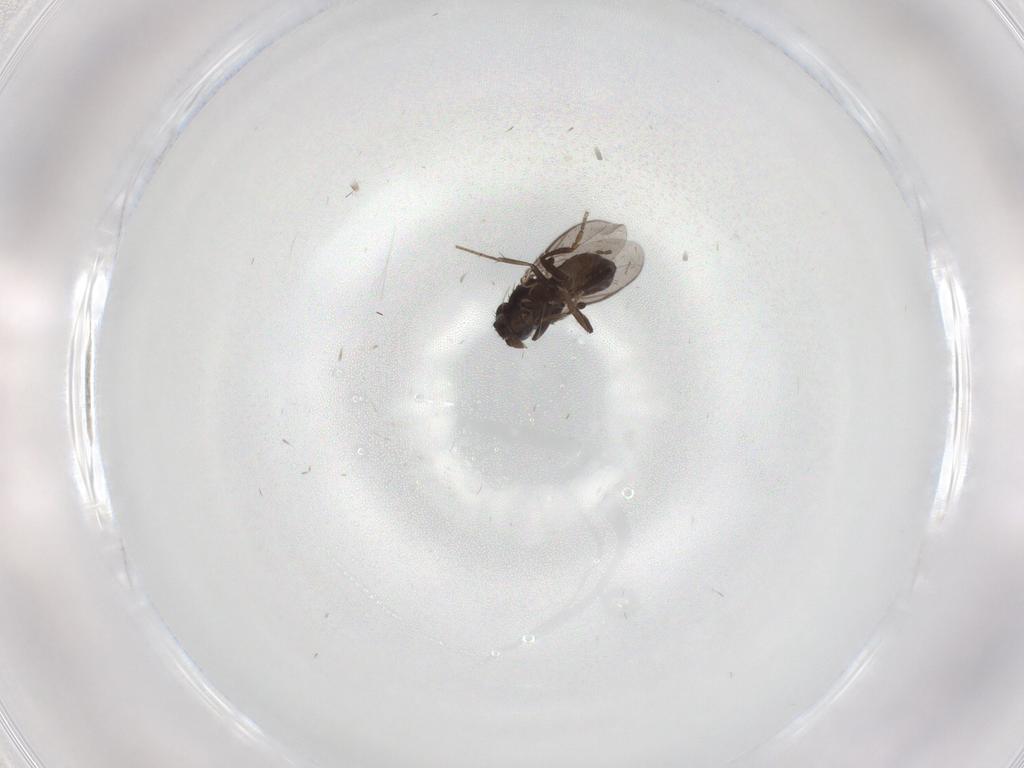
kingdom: Animalia
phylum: Arthropoda
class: Insecta
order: Diptera
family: Sphaeroceridae
